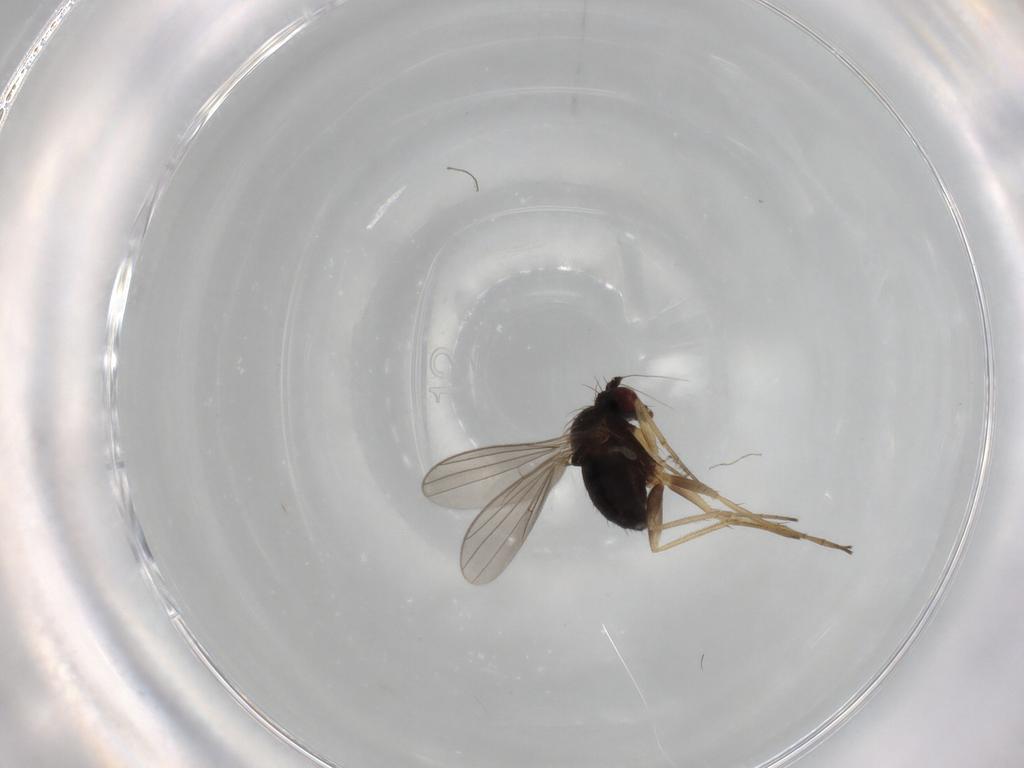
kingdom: Animalia
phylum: Arthropoda
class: Insecta
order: Diptera
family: Dolichopodidae
